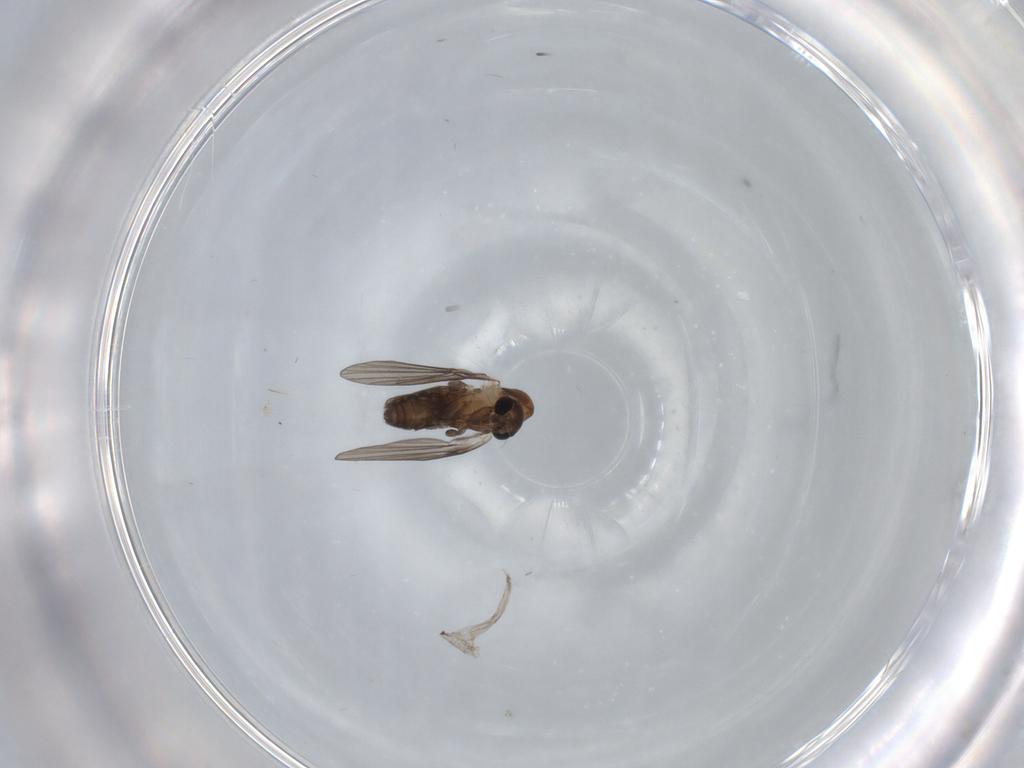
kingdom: Animalia
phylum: Arthropoda
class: Insecta
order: Diptera
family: Psychodidae
